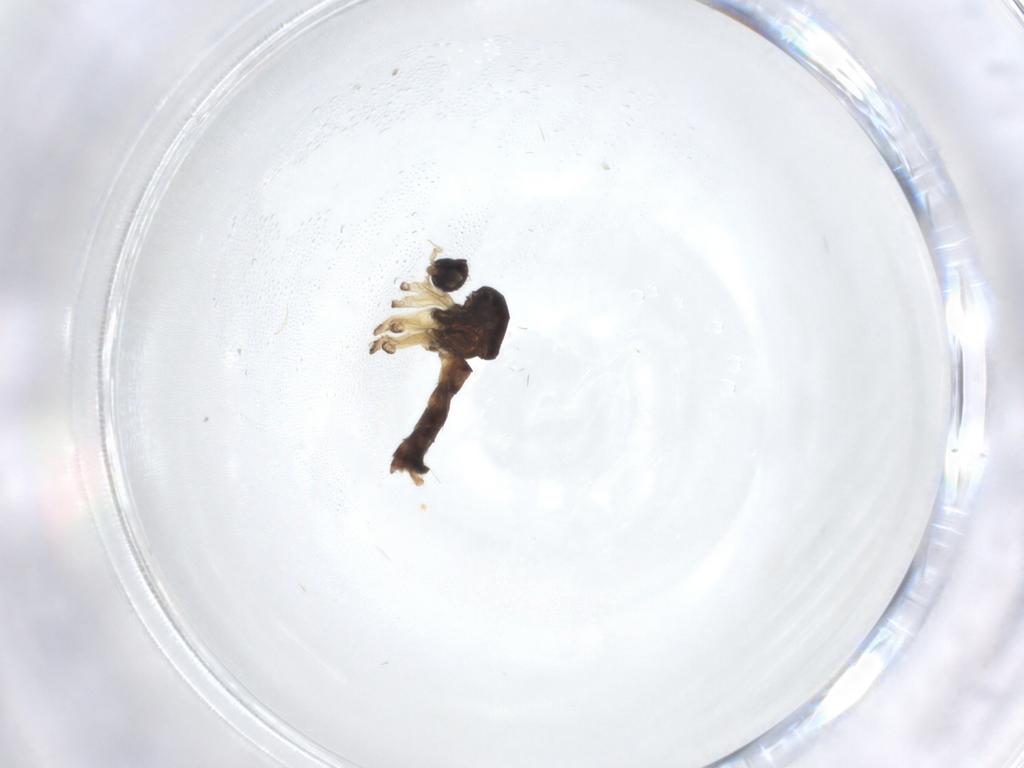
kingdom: Animalia
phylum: Arthropoda
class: Insecta
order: Diptera
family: Mycetophilidae
